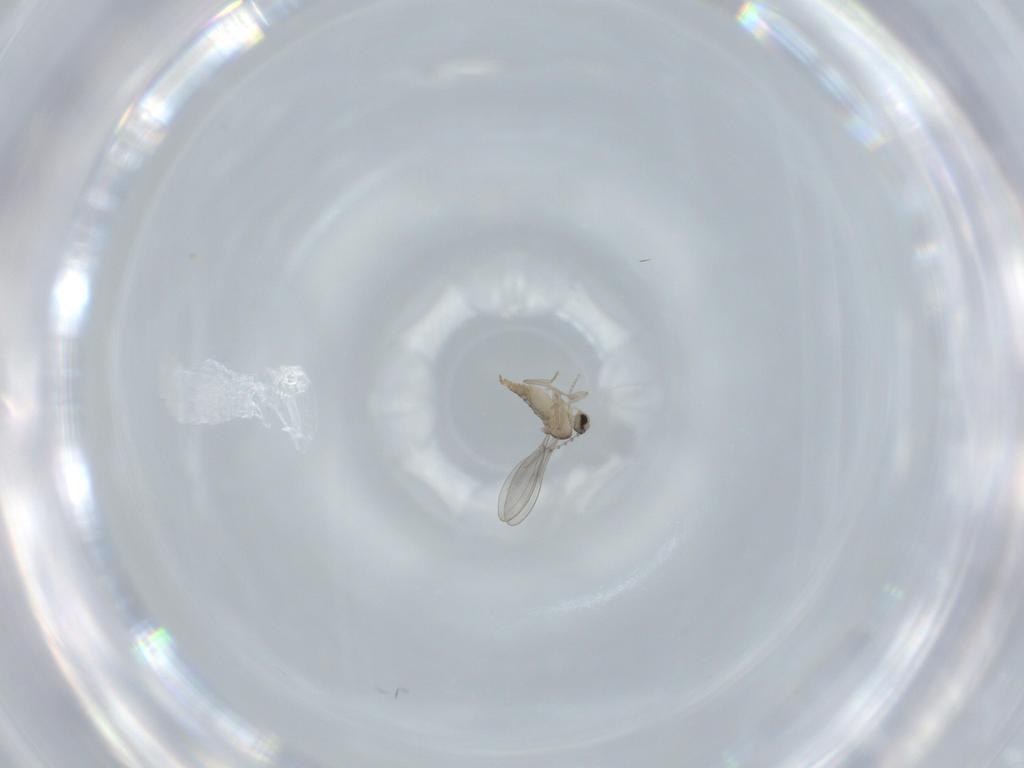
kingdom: Animalia
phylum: Arthropoda
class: Insecta
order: Diptera
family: Cecidomyiidae
